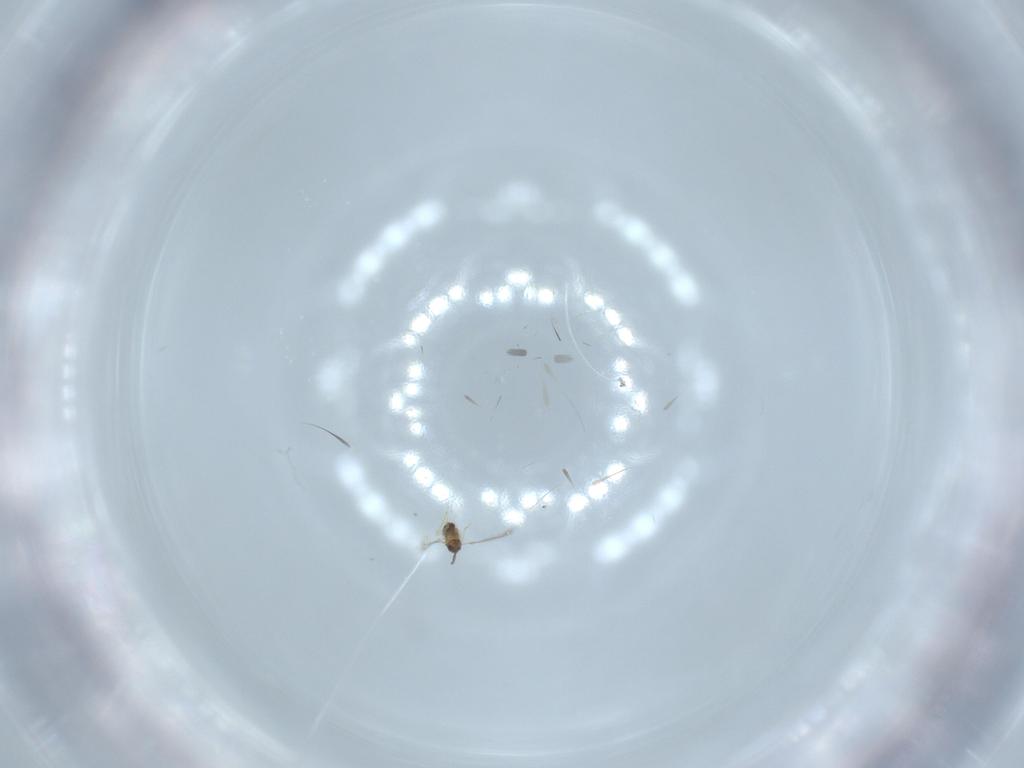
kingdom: Animalia
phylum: Arthropoda
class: Insecta
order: Hymenoptera
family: Mymaridae
